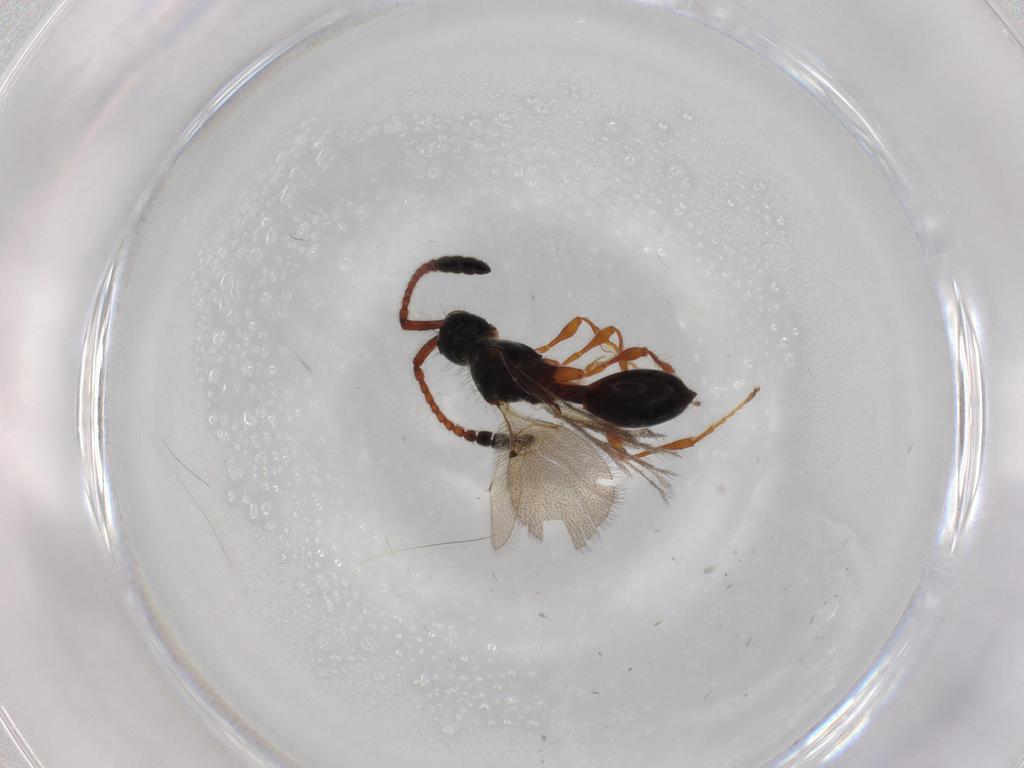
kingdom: Animalia
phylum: Arthropoda
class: Insecta
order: Hymenoptera
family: Diapriidae
